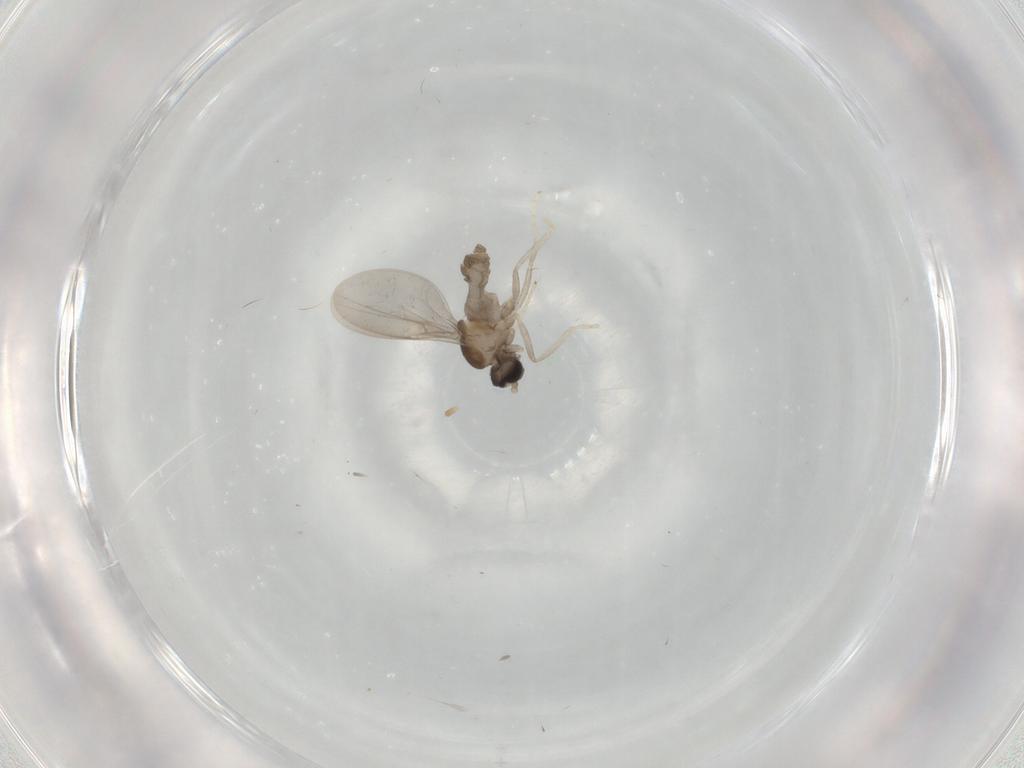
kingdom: Animalia
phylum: Arthropoda
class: Insecta
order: Diptera
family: Cecidomyiidae
